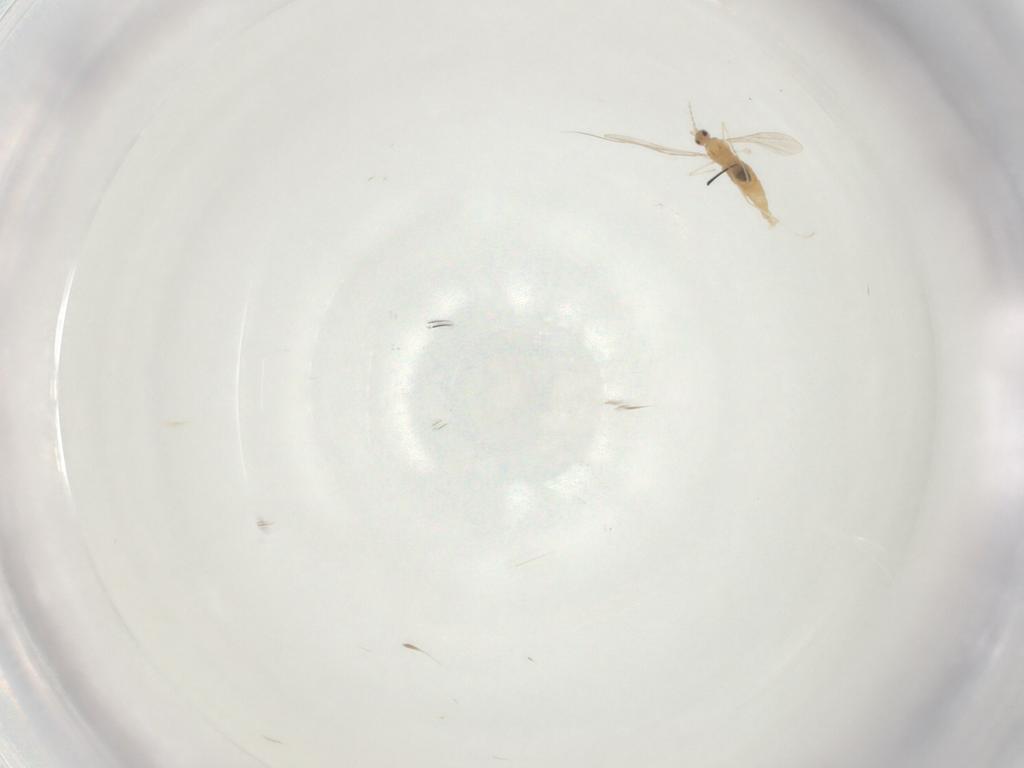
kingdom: Animalia
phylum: Arthropoda
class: Insecta
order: Diptera
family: Cecidomyiidae
